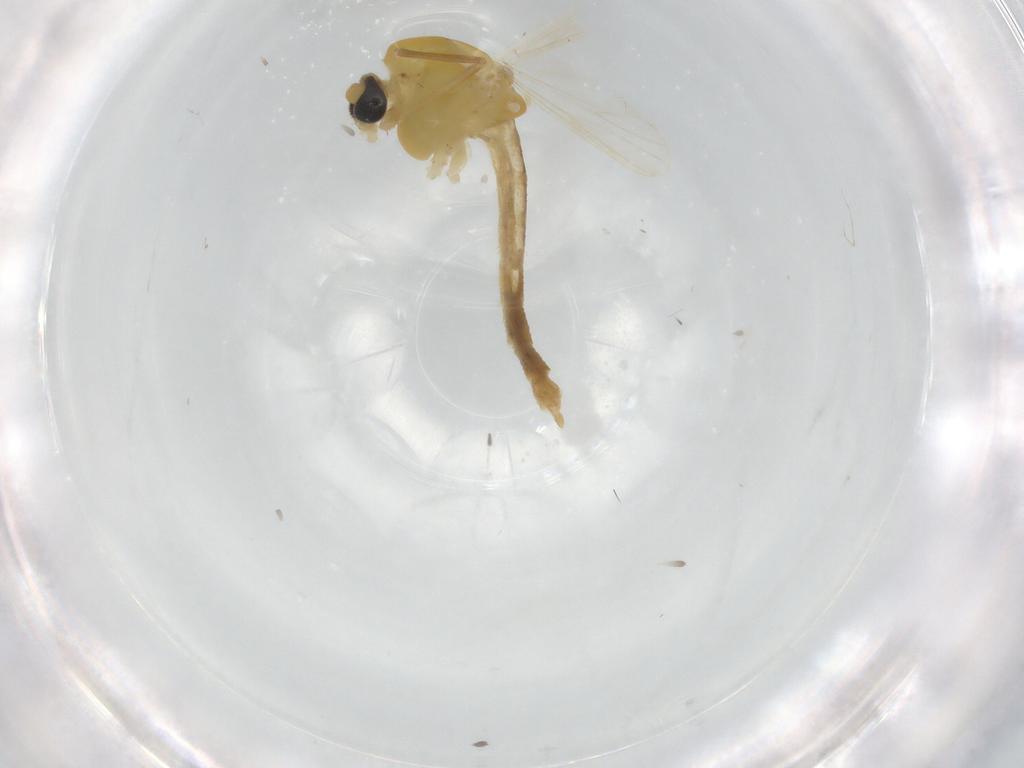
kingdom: Animalia
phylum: Arthropoda
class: Insecta
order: Diptera
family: Chironomidae
